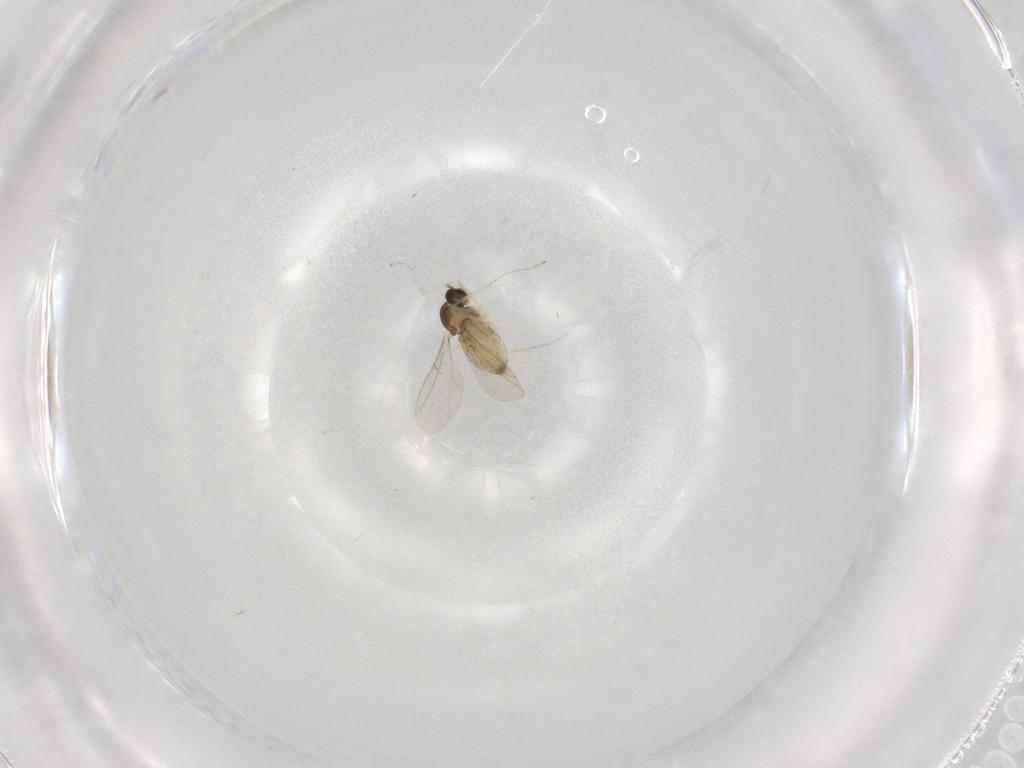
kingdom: Animalia
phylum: Arthropoda
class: Insecta
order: Diptera
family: Cecidomyiidae
